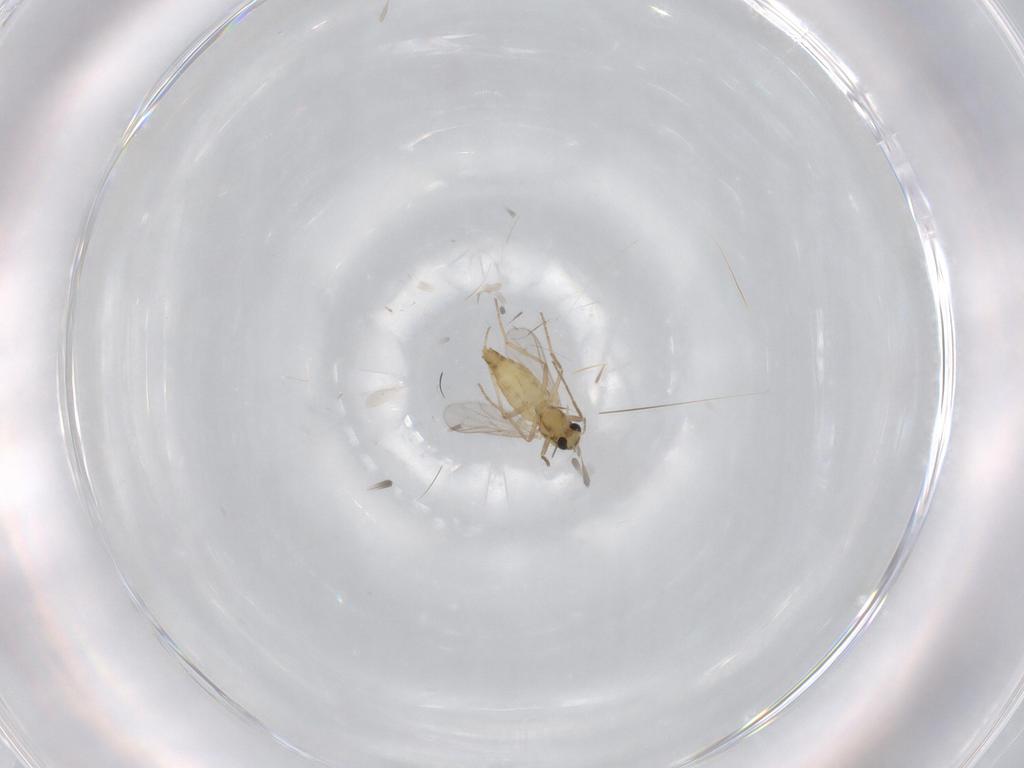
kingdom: Animalia
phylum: Arthropoda
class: Insecta
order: Diptera
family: Chironomidae
